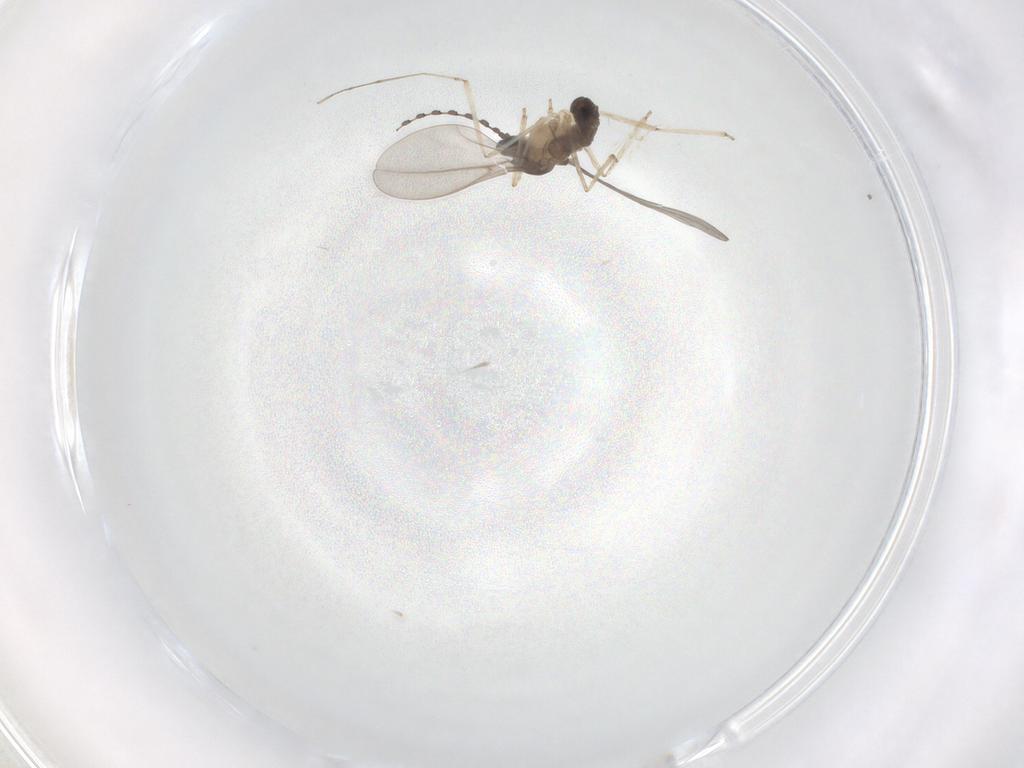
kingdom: Animalia
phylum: Arthropoda
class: Insecta
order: Diptera
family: Cecidomyiidae
